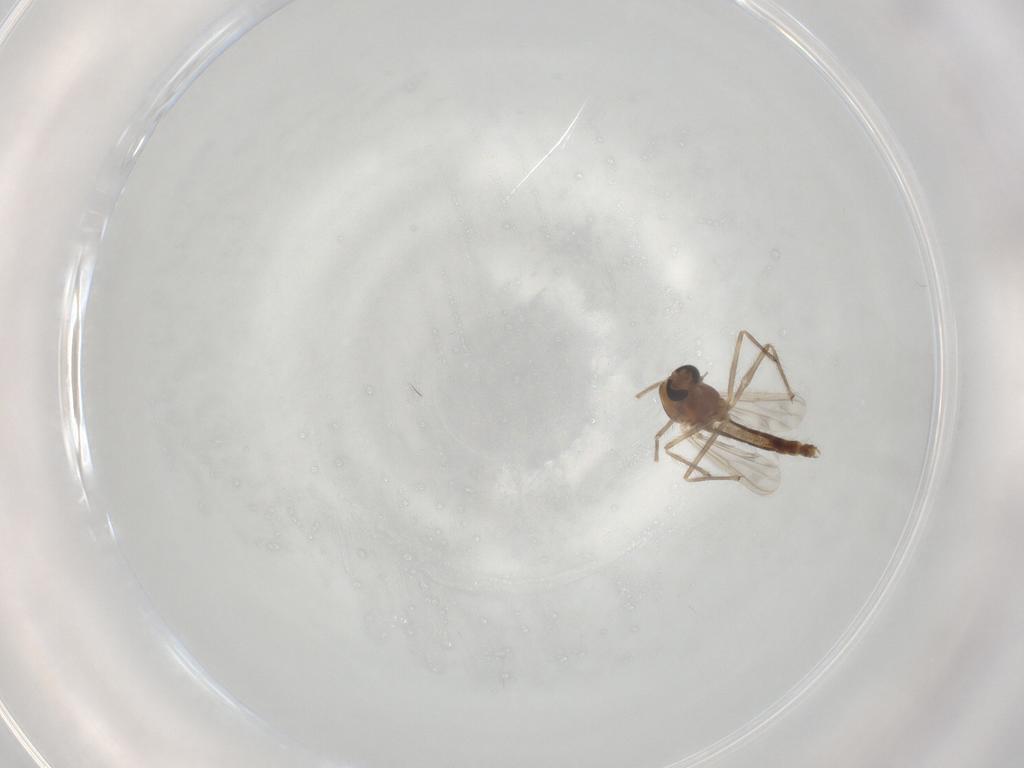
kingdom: Animalia
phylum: Arthropoda
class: Insecta
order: Diptera
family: Chironomidae
